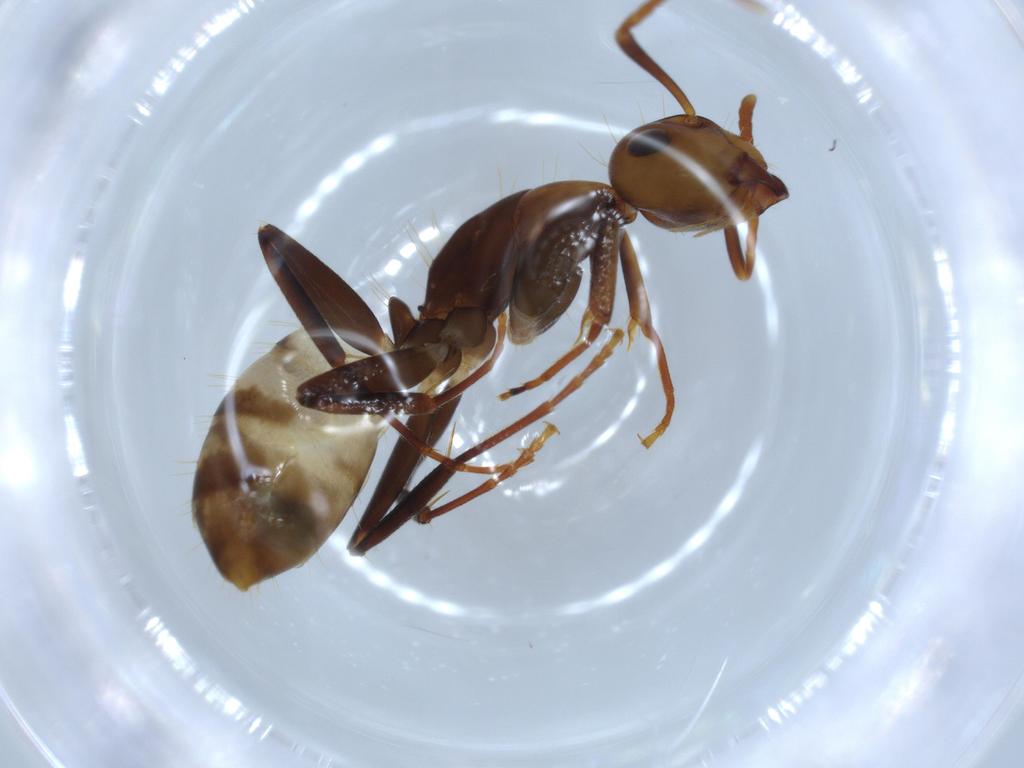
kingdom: Animalia
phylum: Arthropoda
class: Insecta
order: Hymenoptera
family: Formicidae
